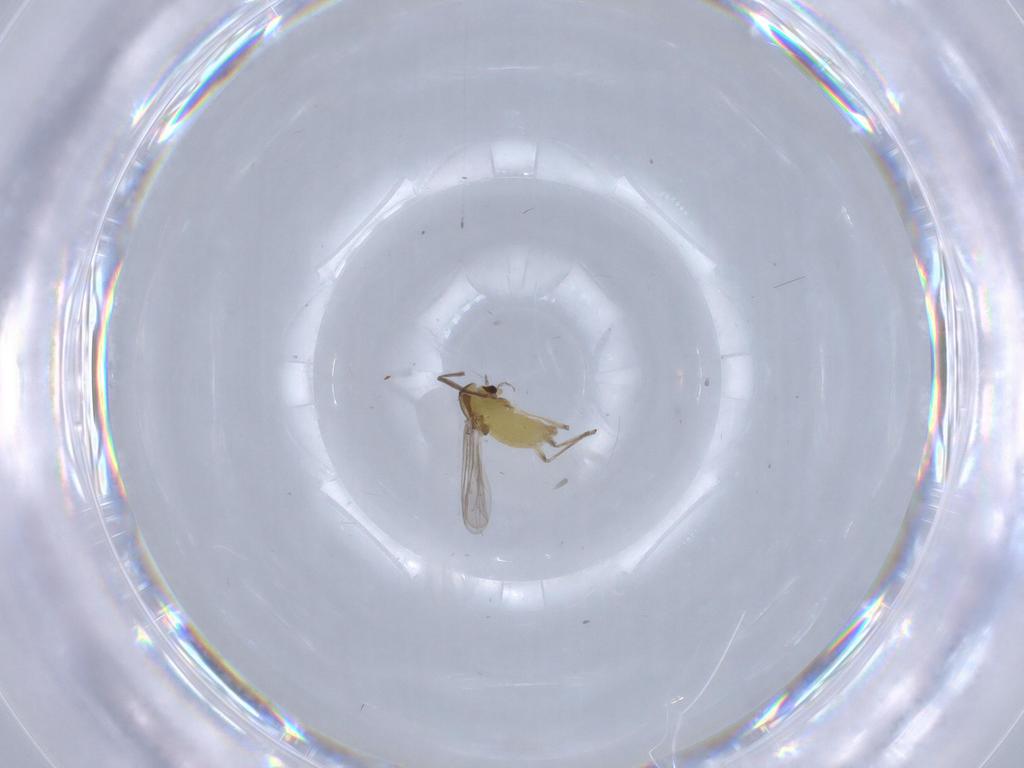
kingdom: Animalia
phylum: Arthropoda
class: Insecta
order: Diptera
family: Chironomidae
